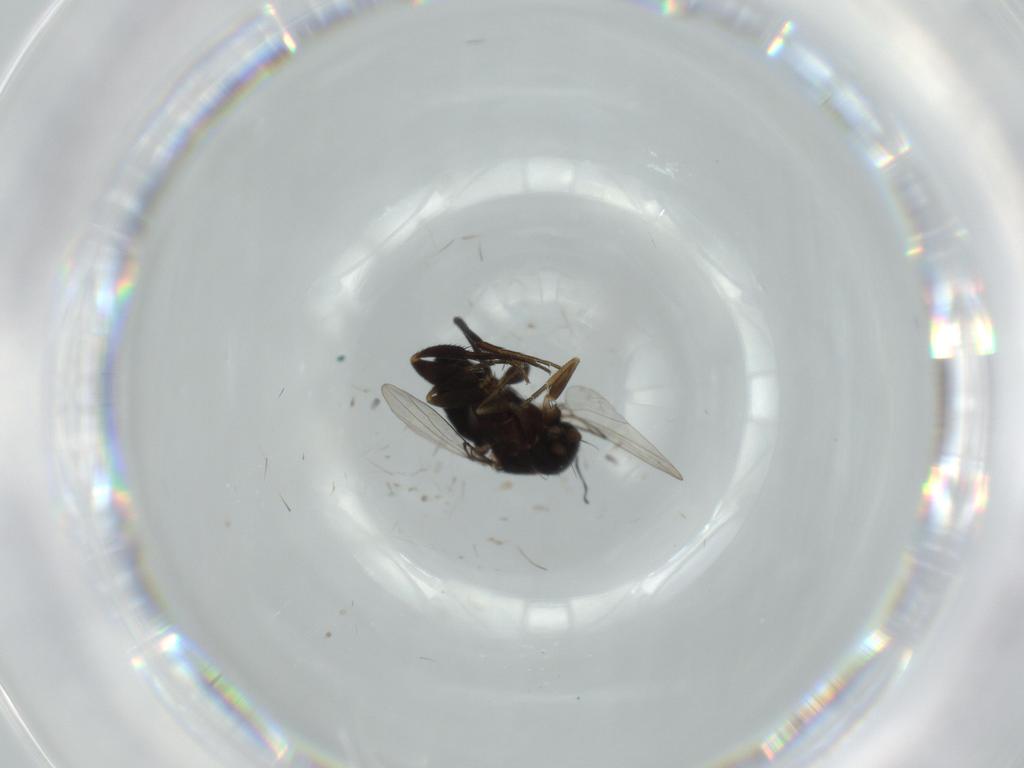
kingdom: Animalia
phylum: Arthropoda
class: Insecta
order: Diptera
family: Phoridae
